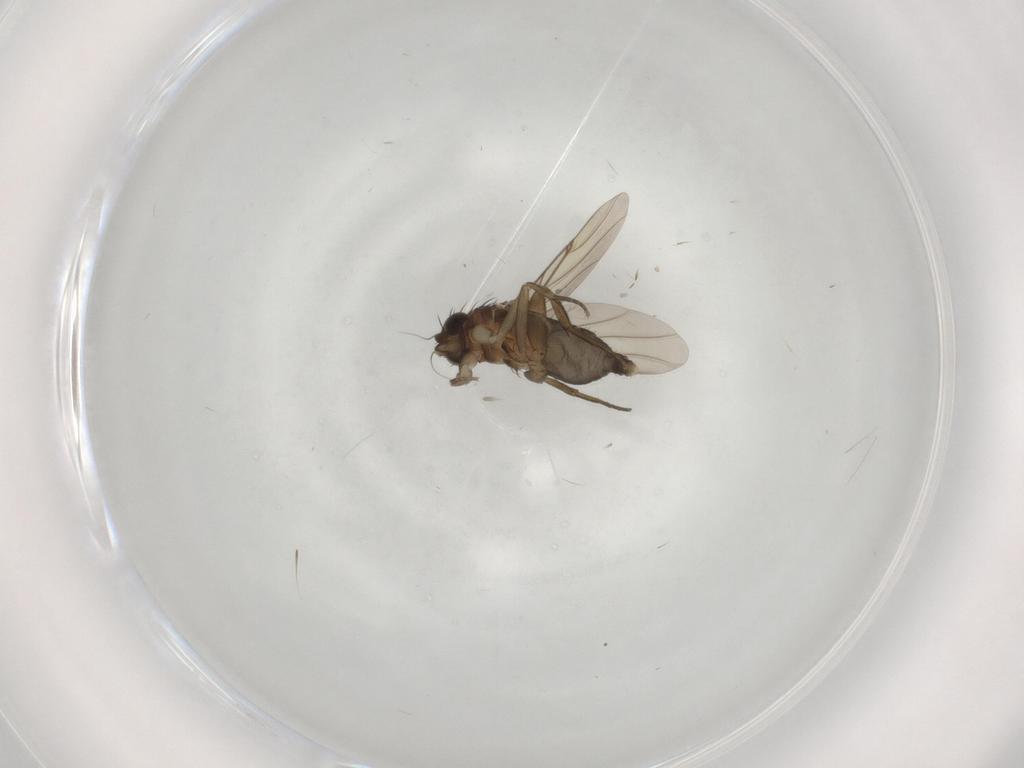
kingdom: Animalia
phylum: Arthropoda
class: Insecta
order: Diptera
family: Phoridae
